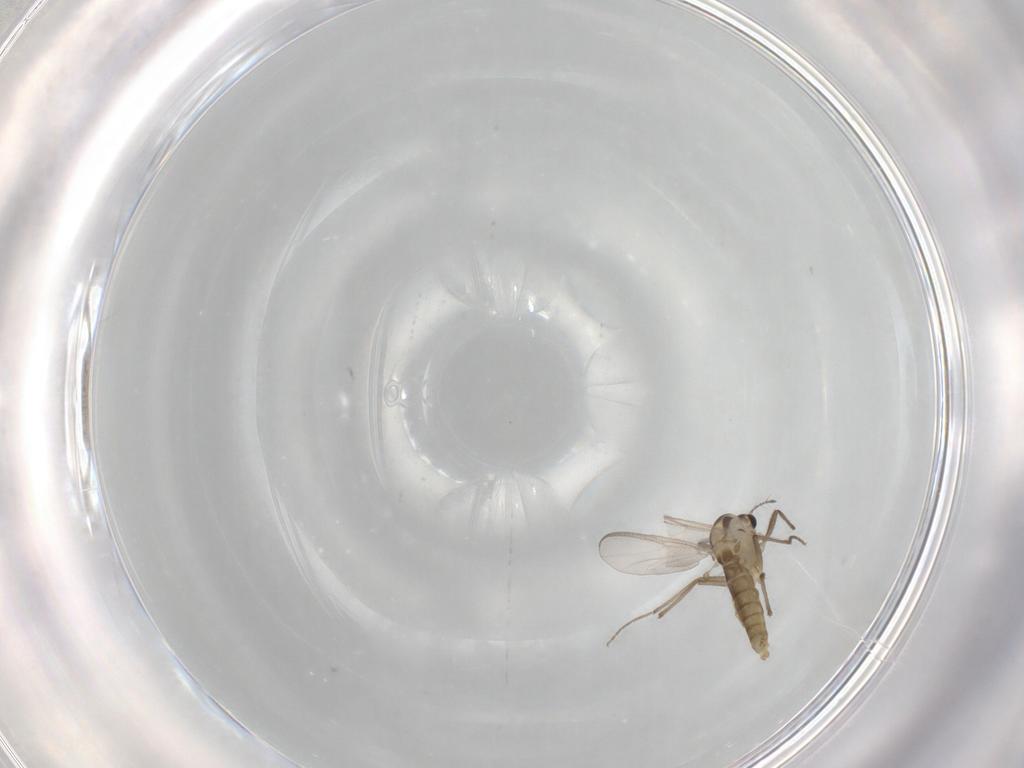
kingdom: Animalia
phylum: Arthropoda
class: Insecta
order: Diptera
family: Chironomidae
